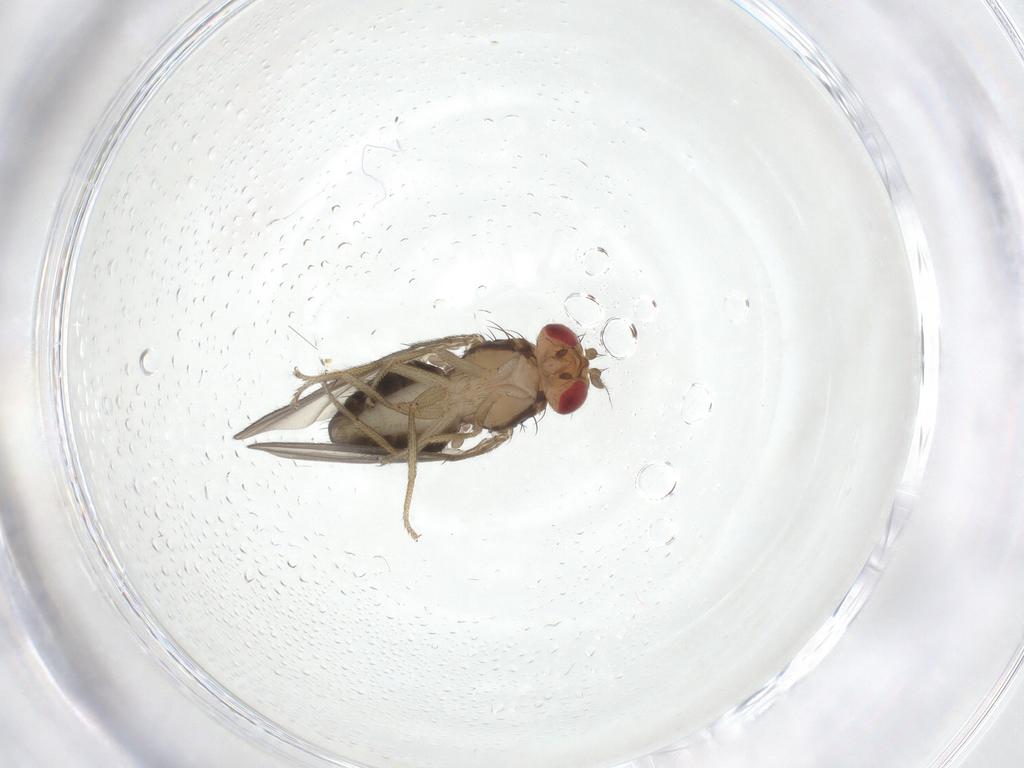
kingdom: Animalia
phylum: Arthropoda
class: Insecta
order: Diptera
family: Drosophilidae
